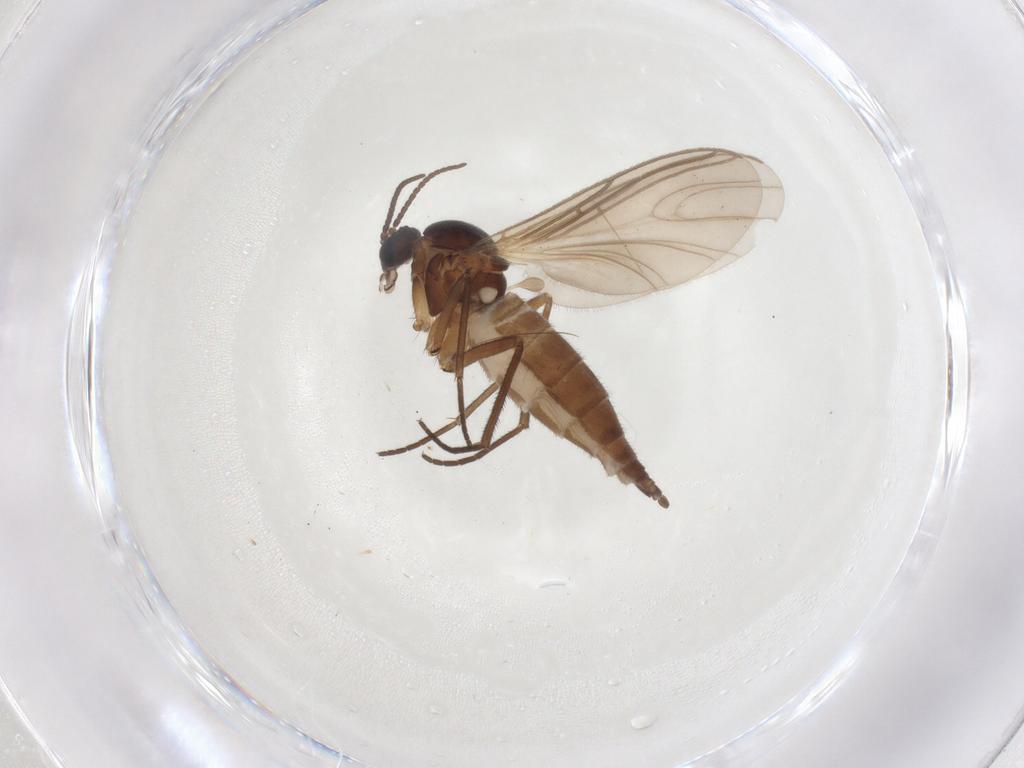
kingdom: Animalia
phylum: Arthropoda
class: Insecta
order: Diptera
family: Sciaridae
